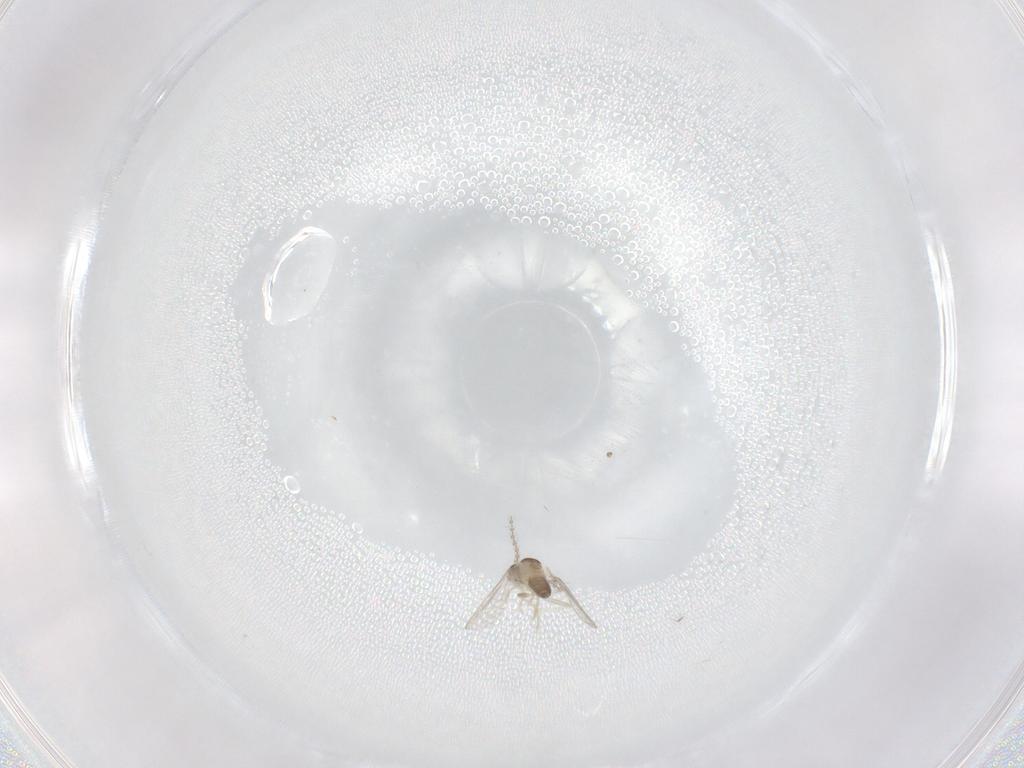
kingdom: Animalia
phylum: Arthropoda
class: Insecta
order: Diptera
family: Cecidomyiidae
